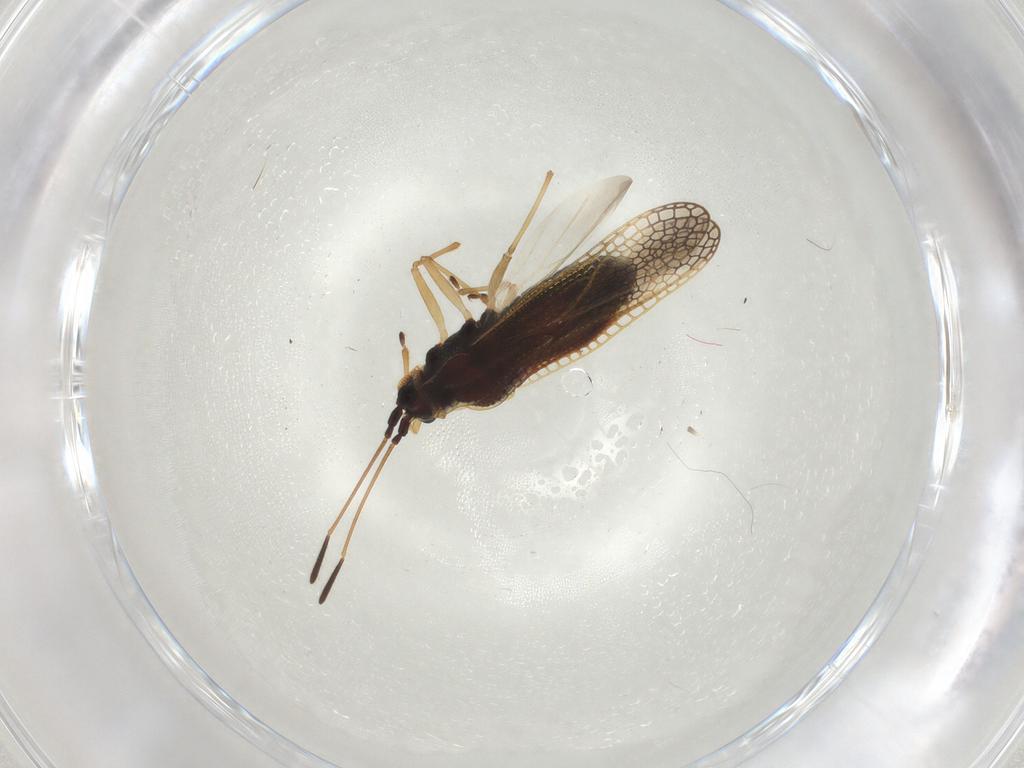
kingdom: Animalia
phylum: Arthropoda
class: Insecta
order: Hemiptera
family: Tingidae
